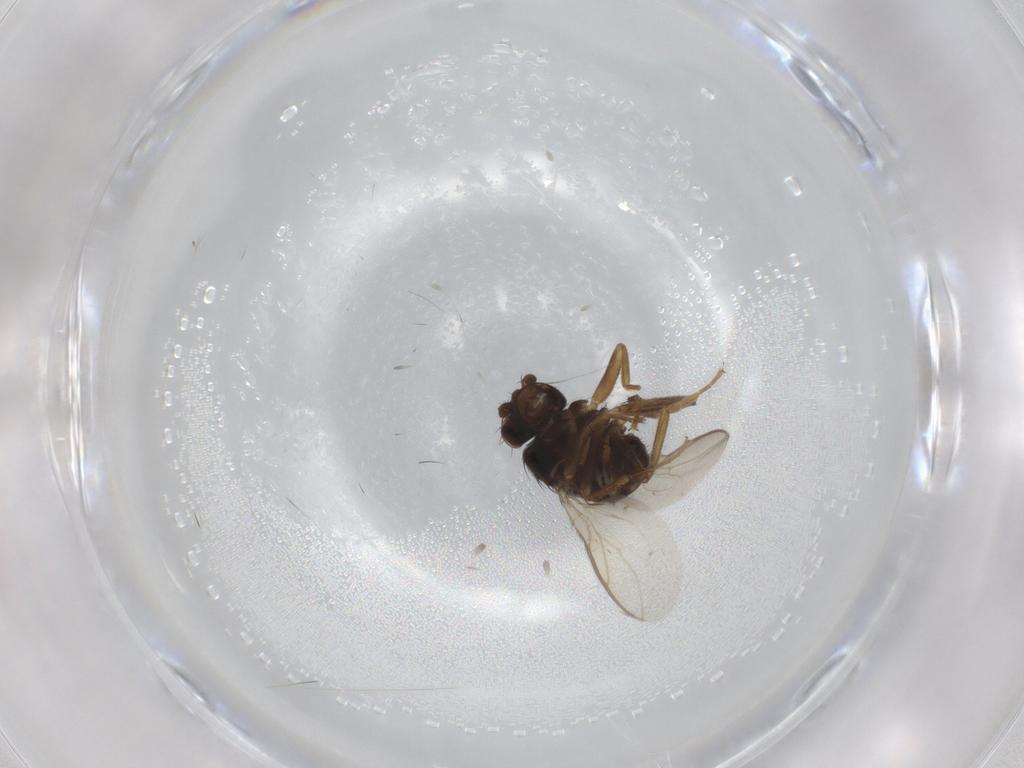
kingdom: Animalia
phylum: Arthropoda
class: Insecta
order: Diptera
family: Sphaeroceridae
